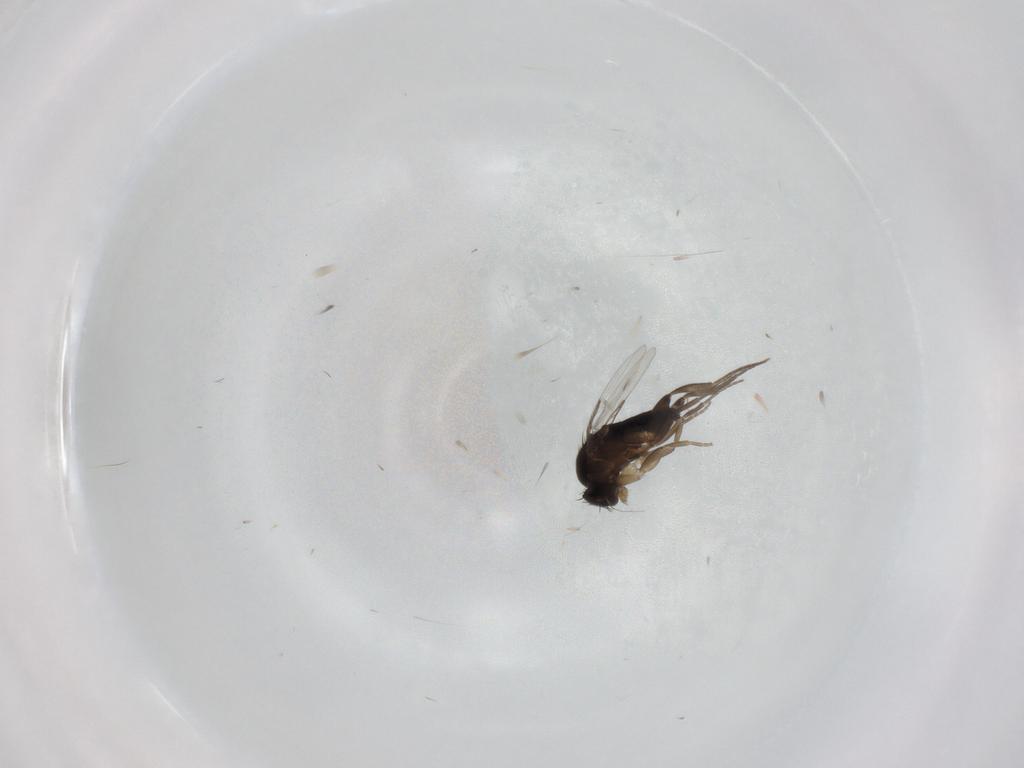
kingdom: Animalia
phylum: Arthropoda
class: Insecta
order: Diptera
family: Phoridae
